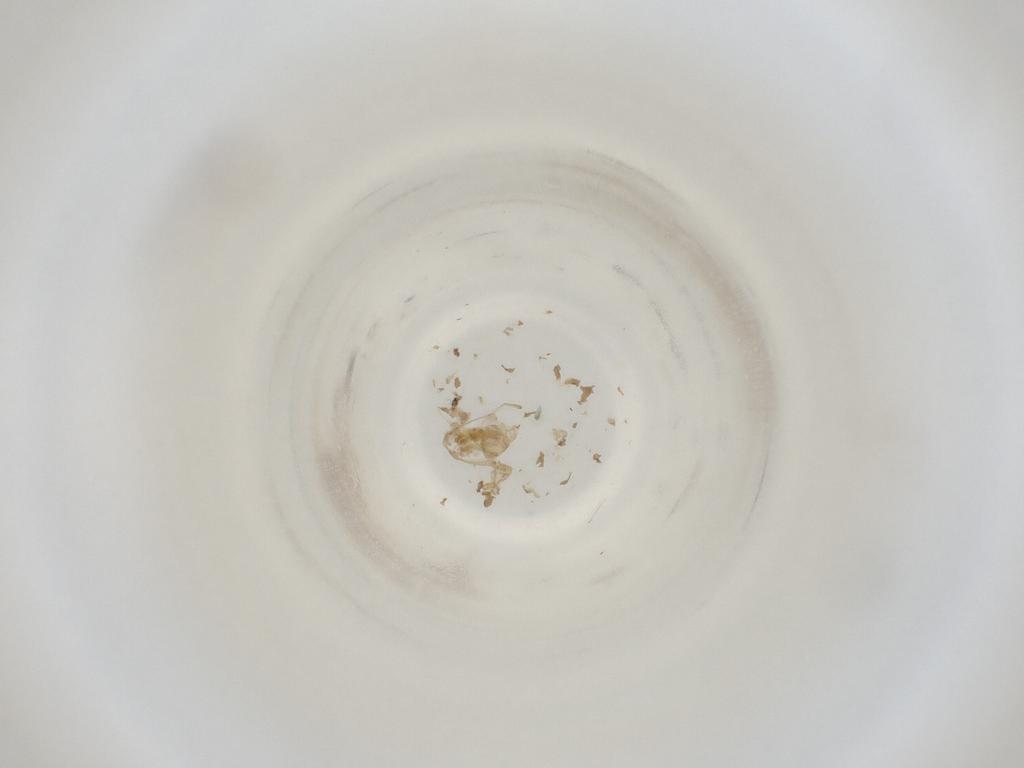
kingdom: Animalia
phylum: Arthropoda
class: Insecta
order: Diptera
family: Cecidomyiidae
